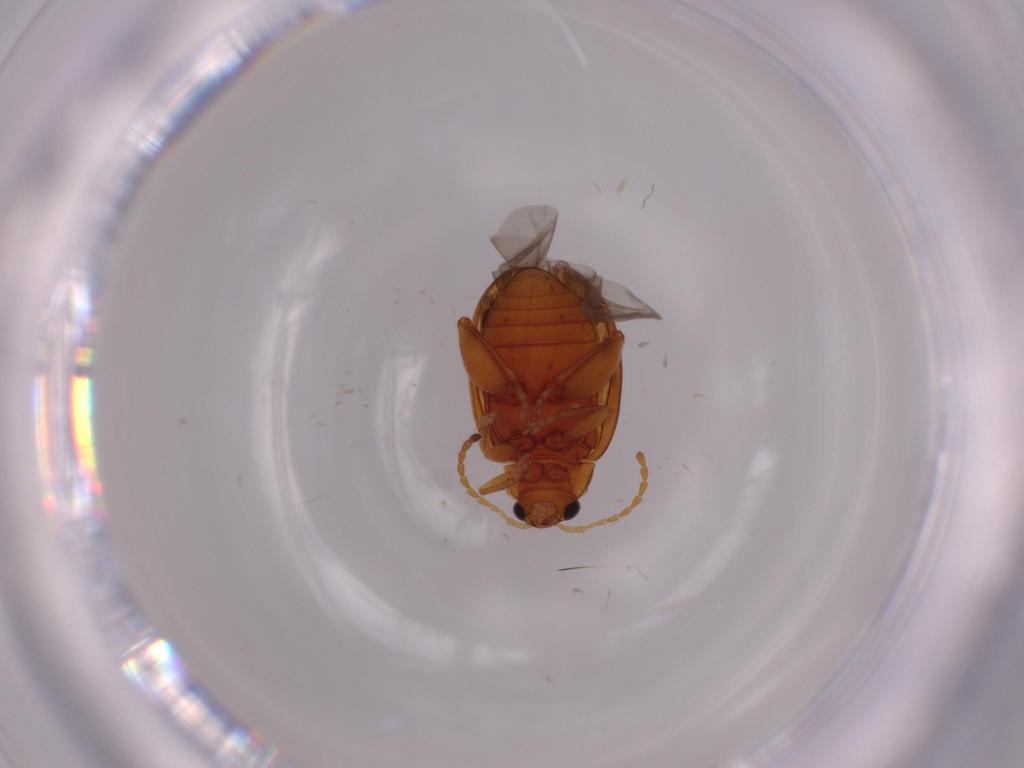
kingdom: Animalia
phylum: Arthropoda
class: Insecta
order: Coleoptera
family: Chrysomelidae
